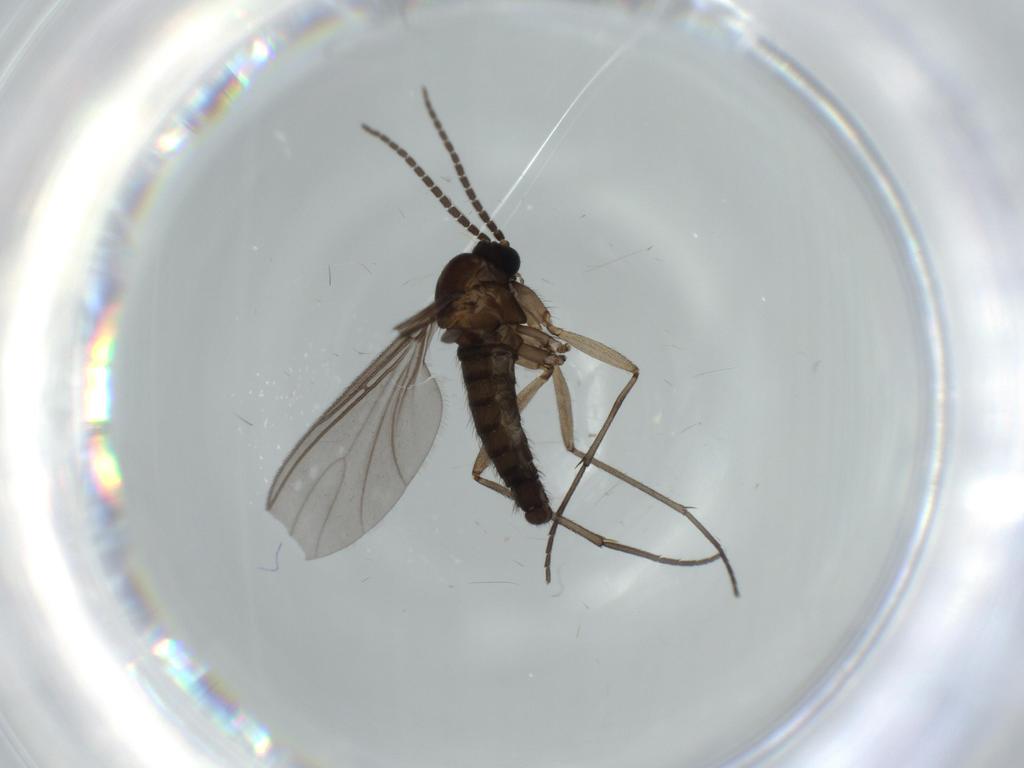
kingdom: Animalia
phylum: Arthropoda
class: Insecta
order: Diptera
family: Sciaridae
